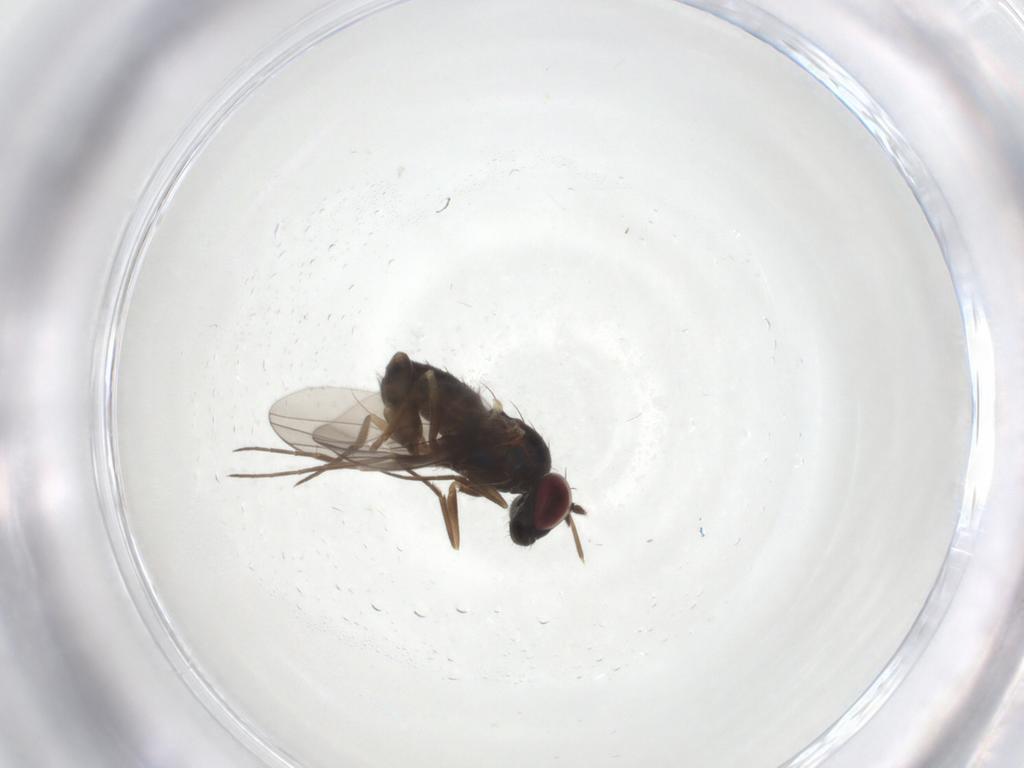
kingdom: Animalia
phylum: Arthropoda
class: Insecta
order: Diptera
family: Dolichopodidae
